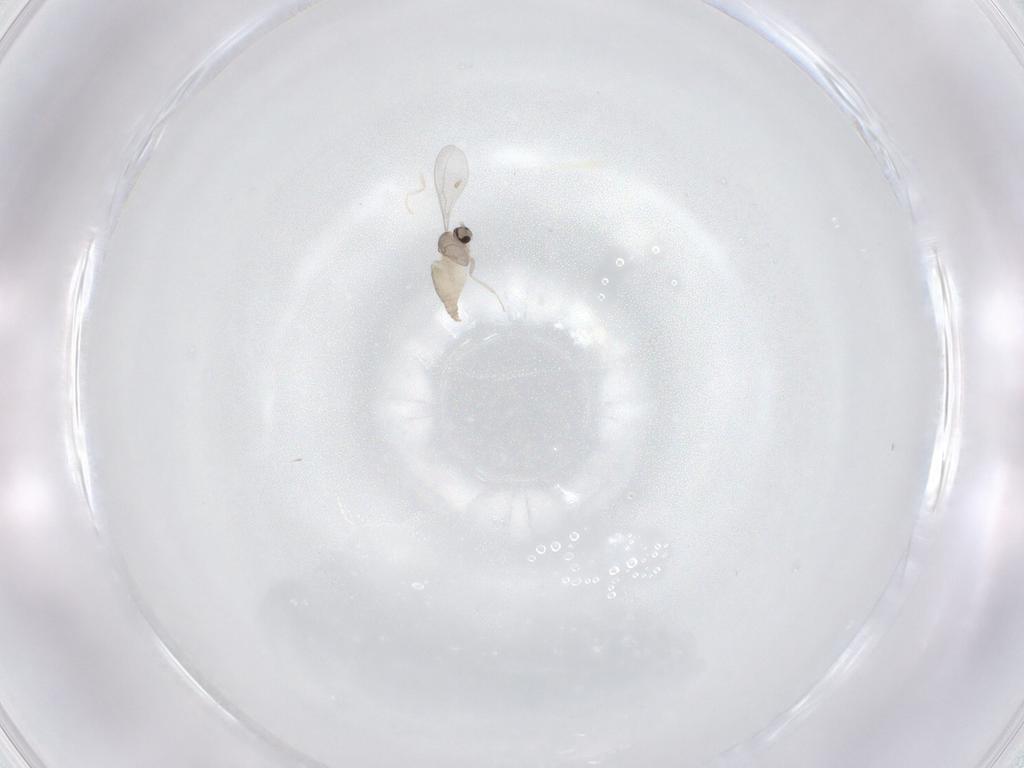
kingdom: Animalia
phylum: Arthropoda
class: Insecta
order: Diptera
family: Cecidomyiidae
